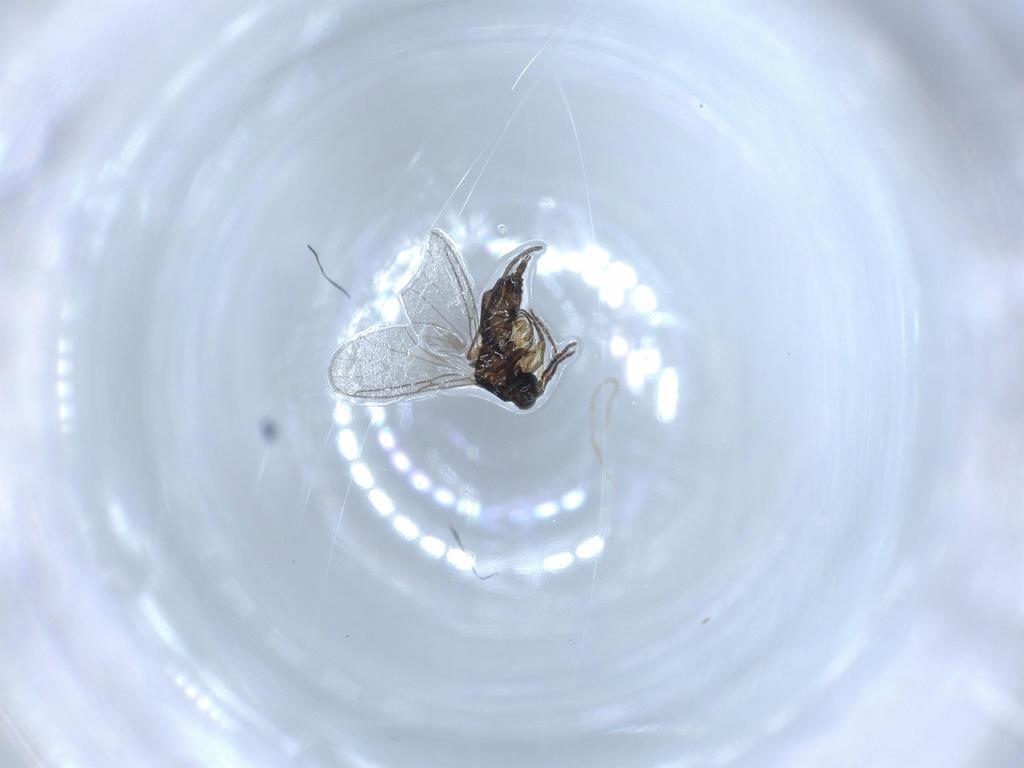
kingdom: Animalia
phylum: Arthropoda
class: Insecta
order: Diptera
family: Sciaridae
